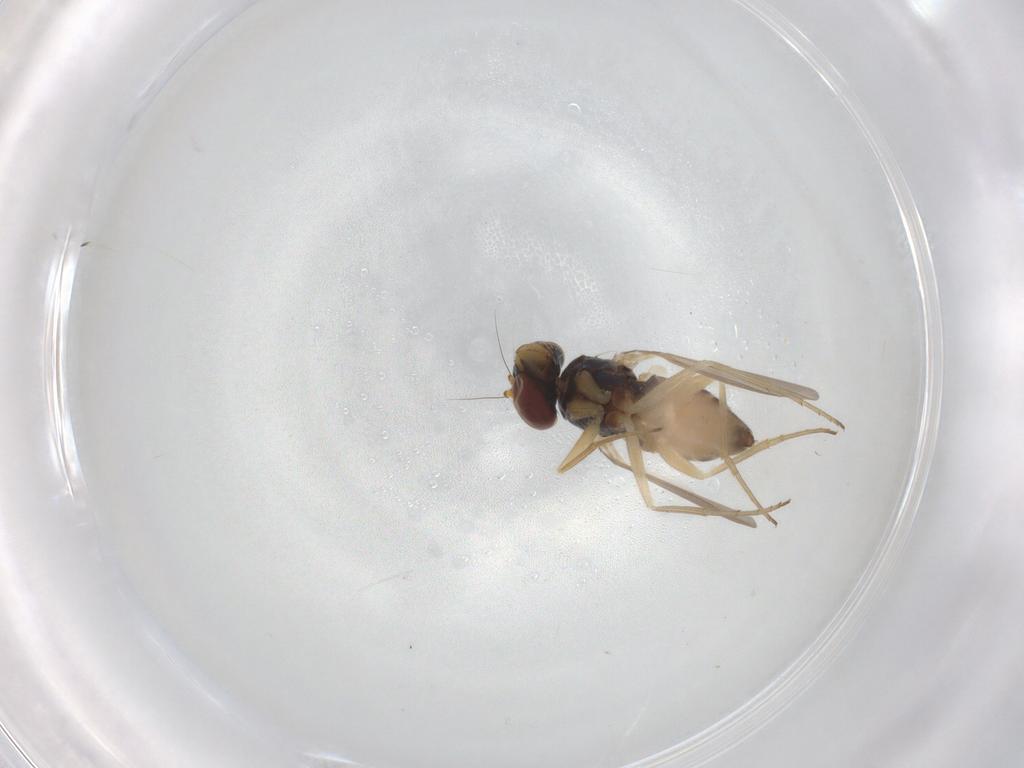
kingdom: Animalia
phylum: Arthropoda
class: Insecta
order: Diptera
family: Dolichopodidae
